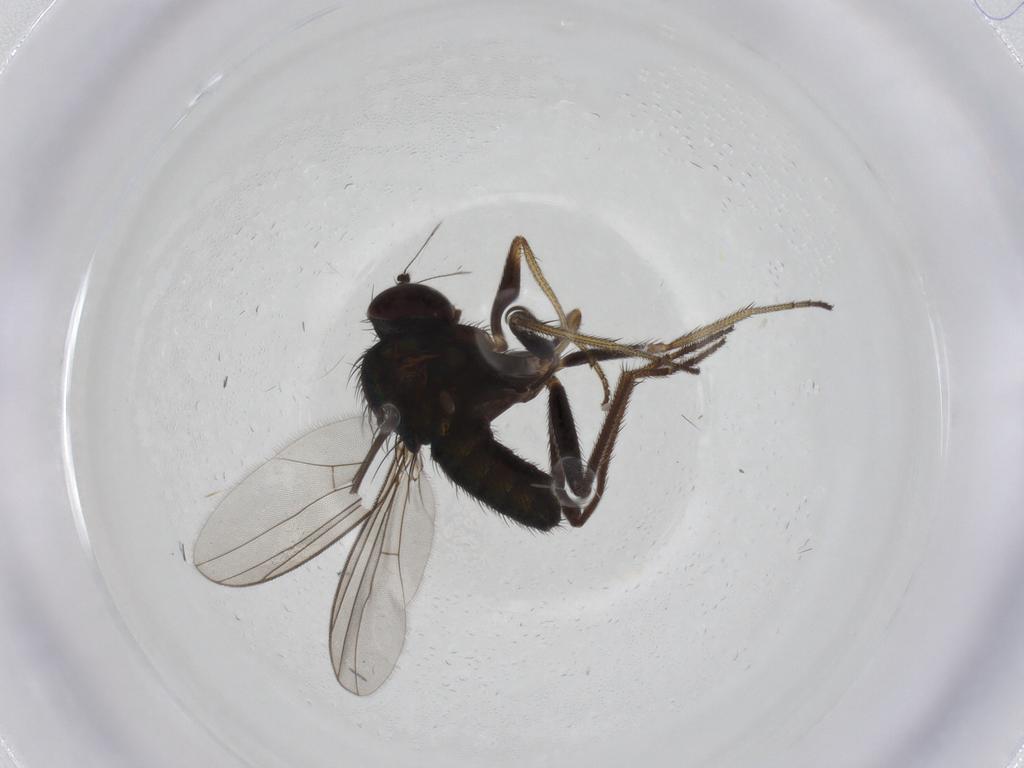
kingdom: Animalia
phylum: Arthropoda
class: Insecta
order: Diptera
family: Dolichopodidae
